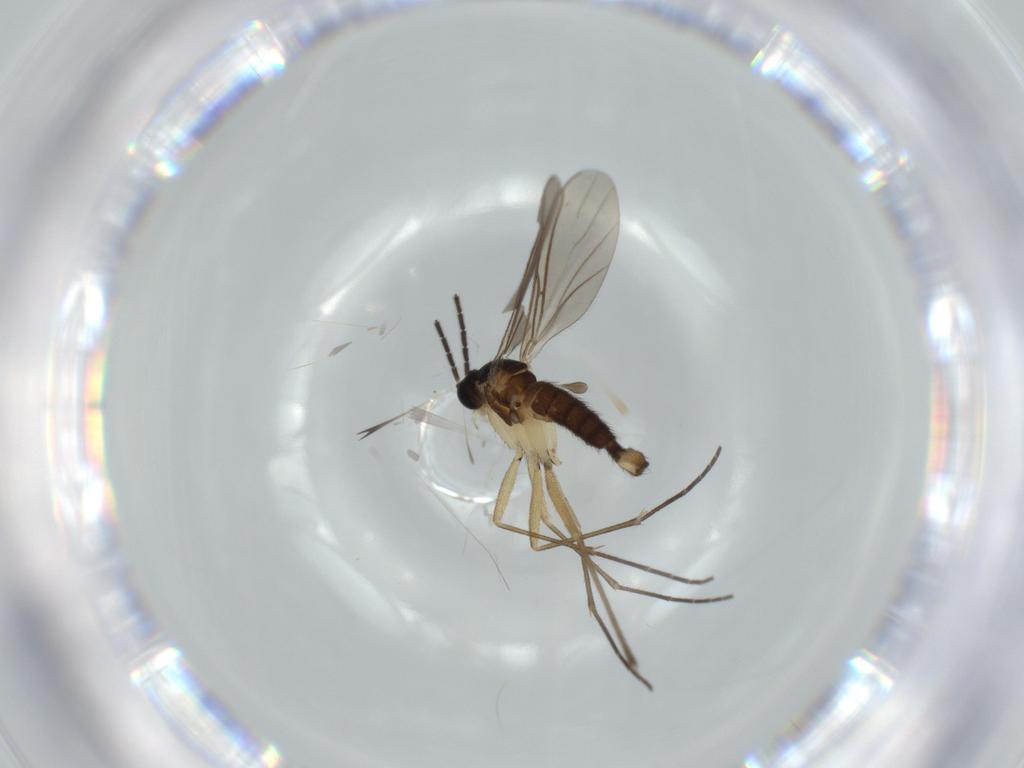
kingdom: Animalia
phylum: Arthropoda
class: Insecta
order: Diptera
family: Sciaridae
